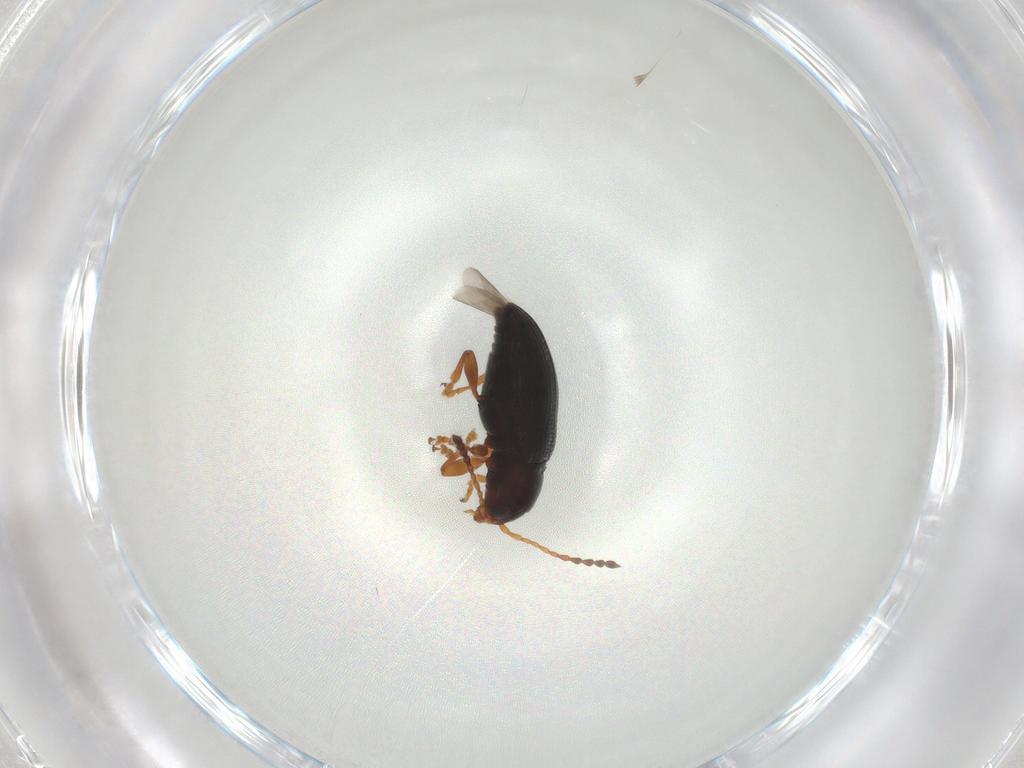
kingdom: Animalia
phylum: Arthropoda
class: Insecta
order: Coleoptera
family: Chrysomelidae
